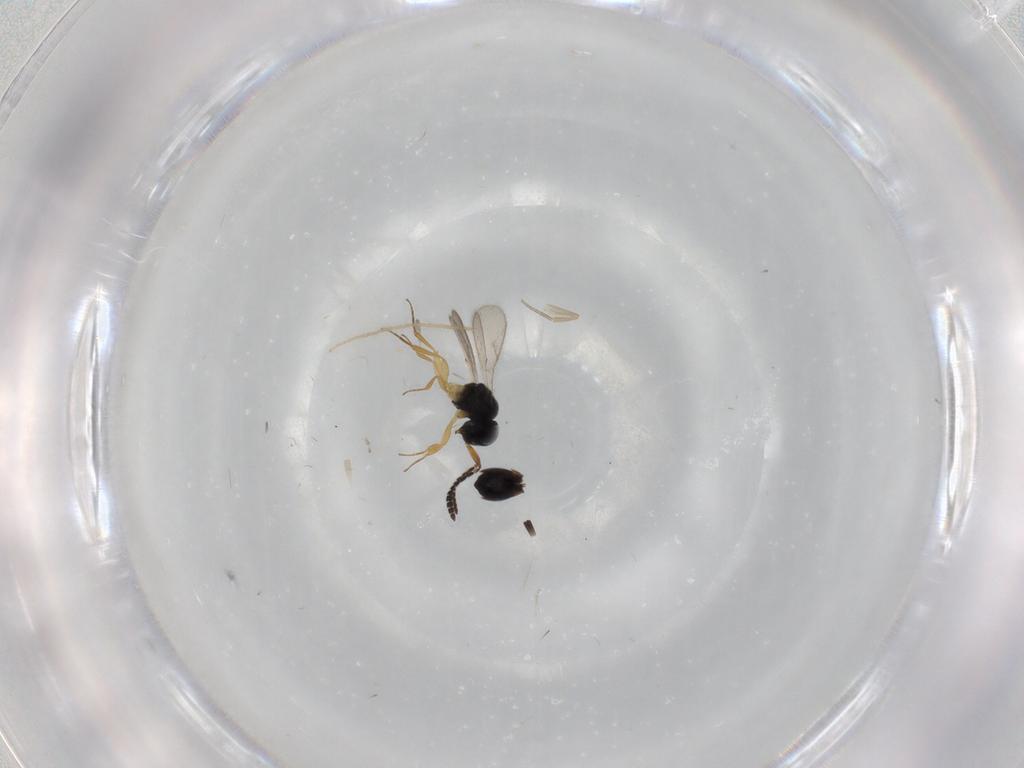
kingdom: Animalia
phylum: Arthropoda
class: Insecta
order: Hymenoptera
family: Scelionidae
